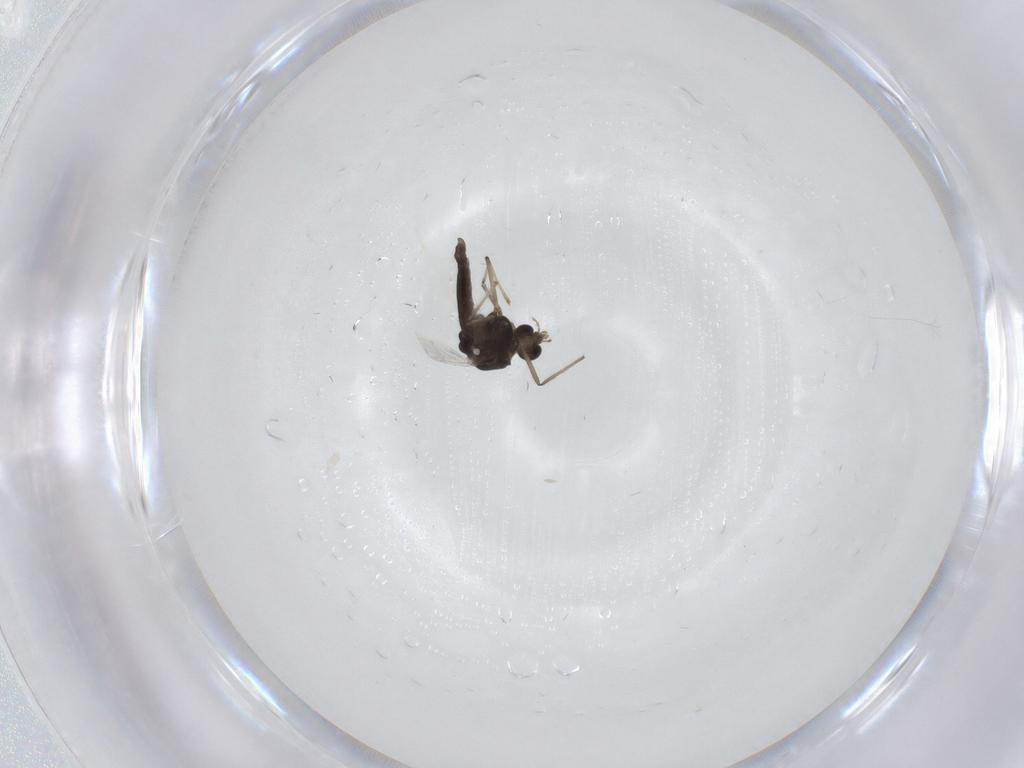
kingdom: Animalia
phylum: Arthropoda
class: Insecta
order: Diptera
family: Chironomidae
